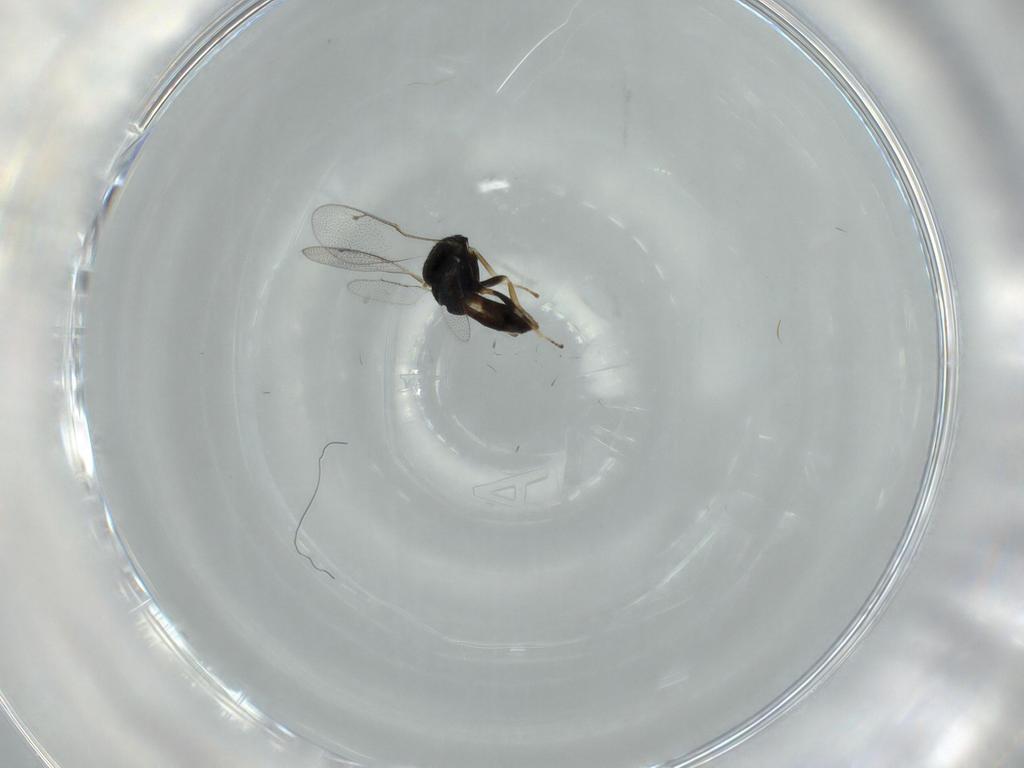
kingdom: Animalia
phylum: Arthropoda
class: Insecta
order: Hymenoptera
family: Pteromalidae
